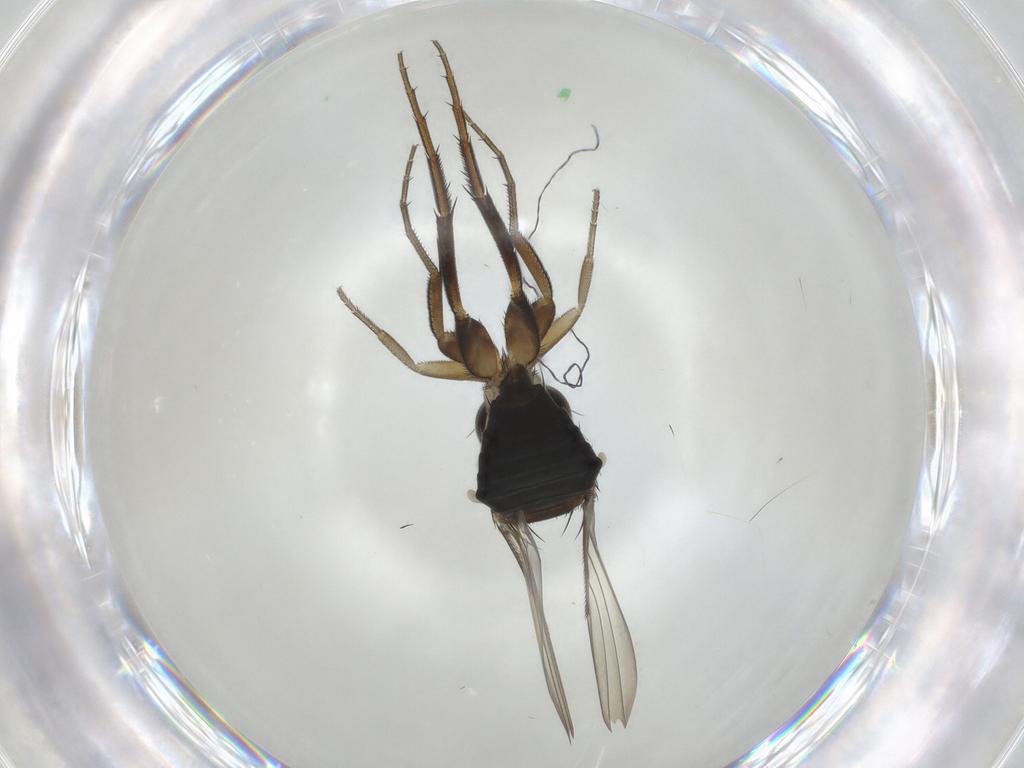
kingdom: Animalia
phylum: Arthropoda
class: Insecta
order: Diptera
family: Phoridae
